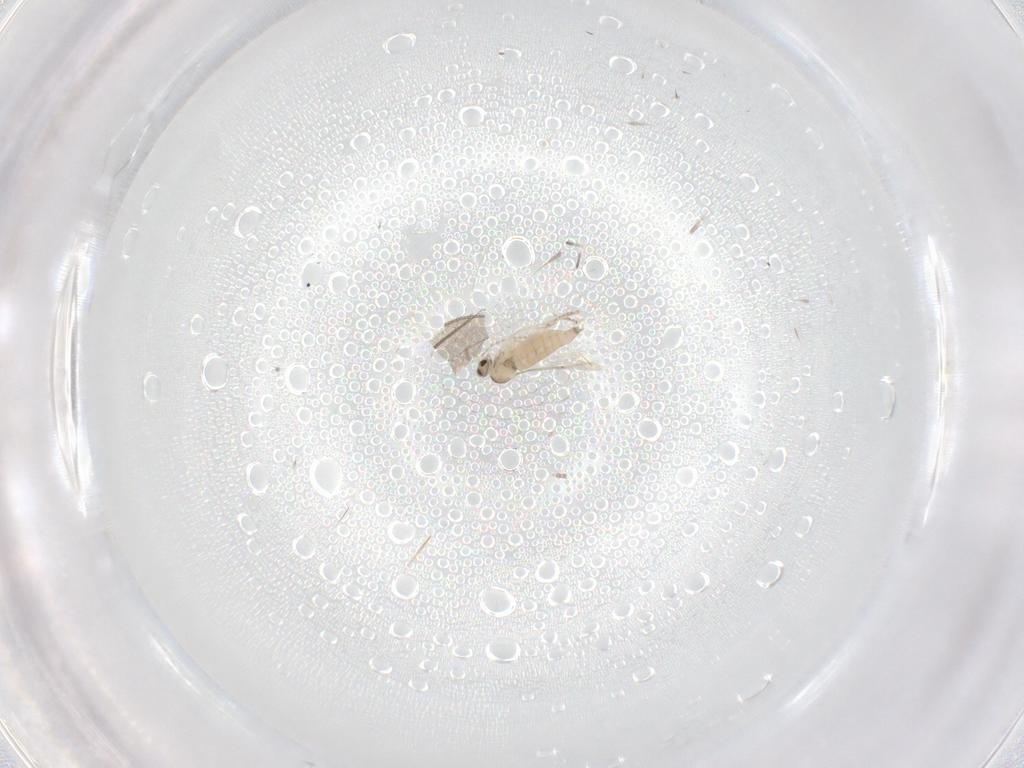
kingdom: Animalia
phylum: Arthropoda
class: Insecta
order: Diptera
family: Cecidomyiidae
